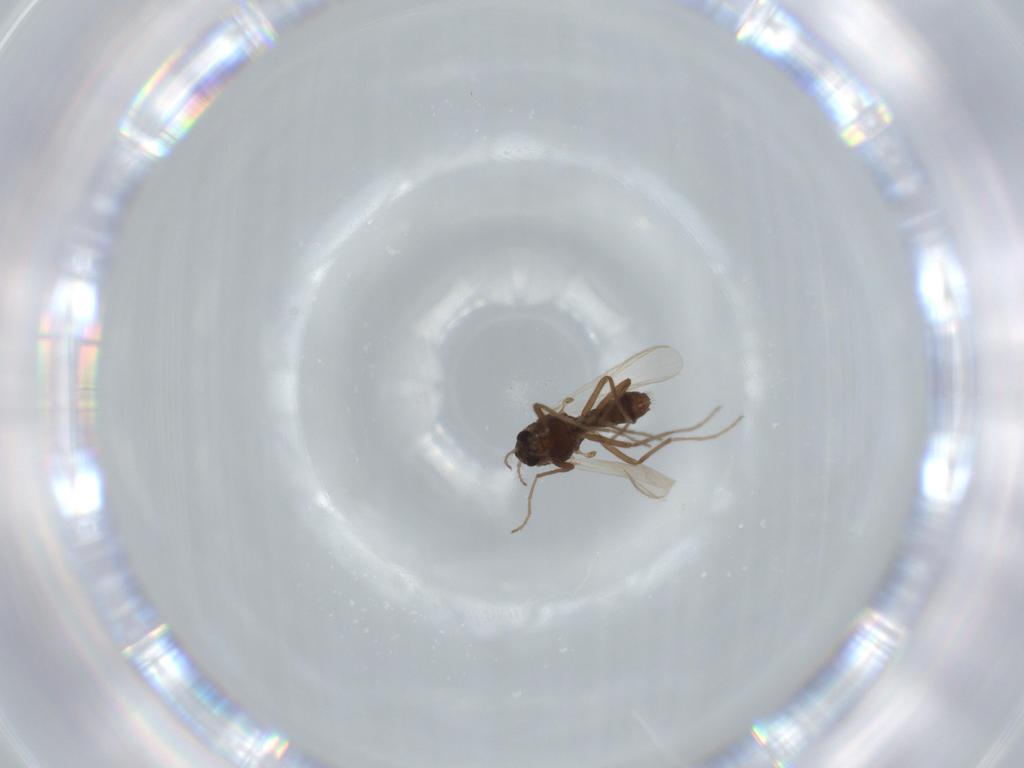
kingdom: Animalia
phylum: Arthropoda
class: Insecta
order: Diptera
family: Chironomidae
